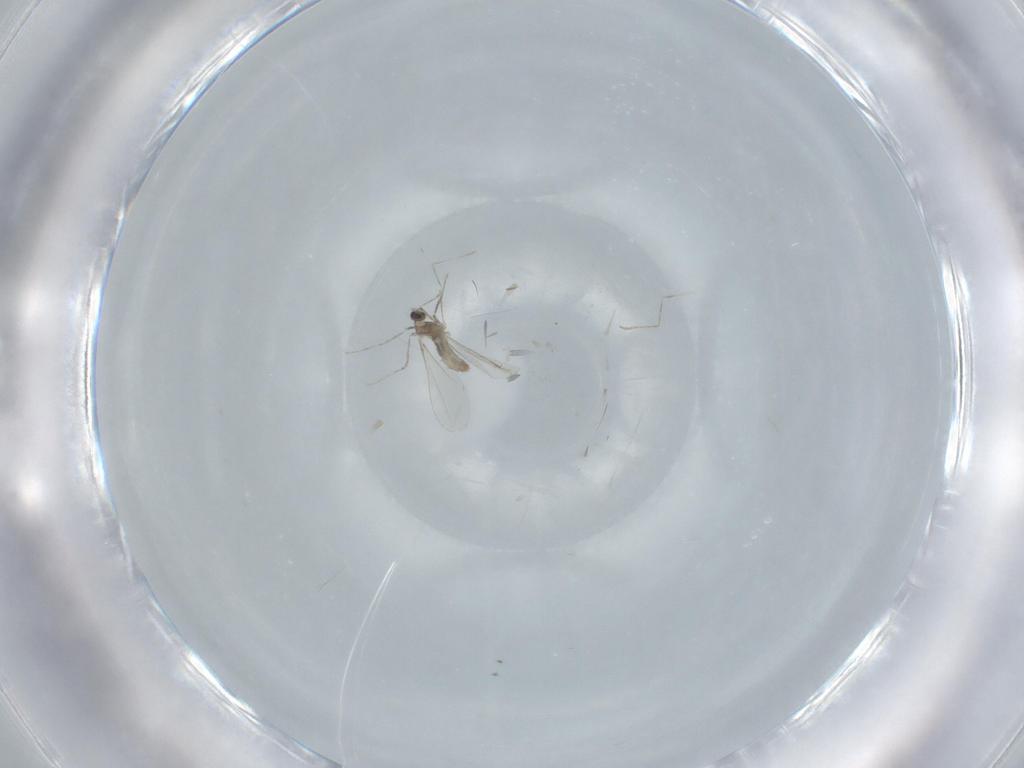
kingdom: Animalia
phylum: Arthropoda
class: Insecta
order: Diptera
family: Cecidomyiidae
